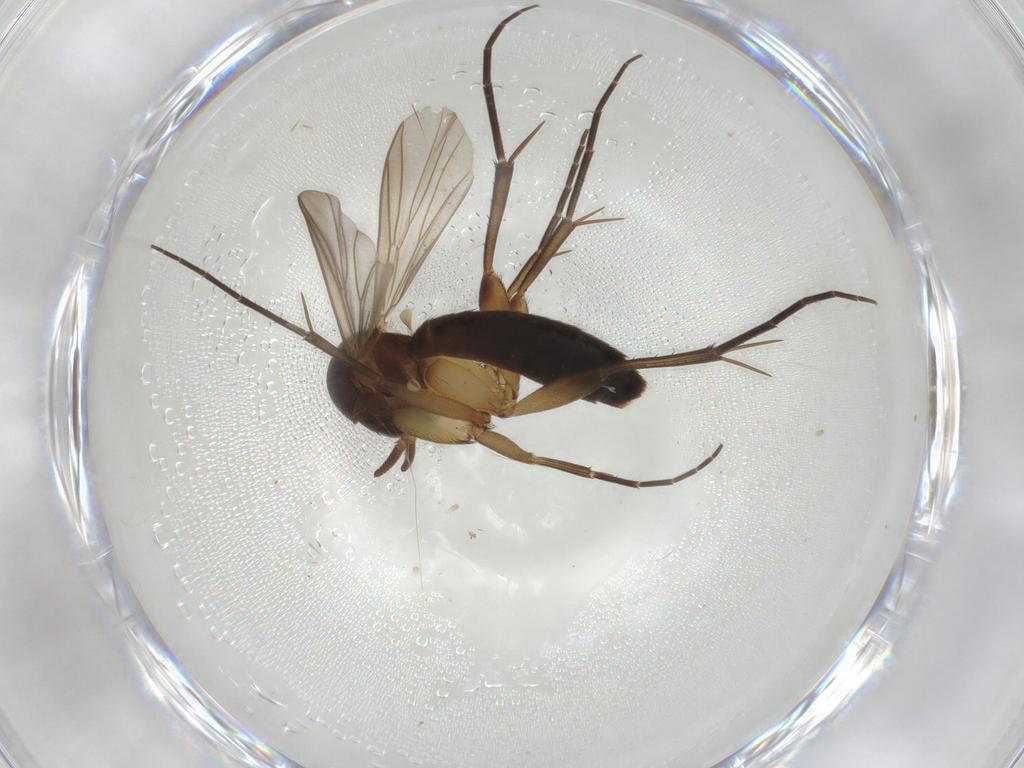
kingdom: Animalia
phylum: Arthropoda
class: Insecta
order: Diptera
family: Mycetophilidae
